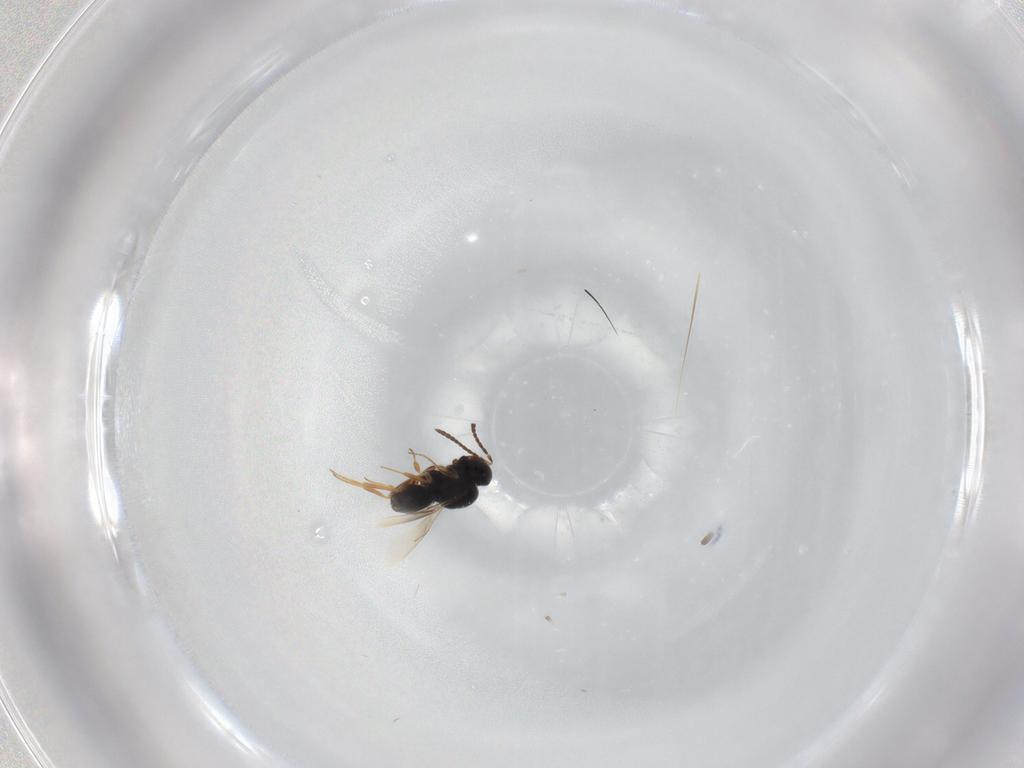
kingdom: Animalia
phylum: Arthropoda
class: Insecta
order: Hymenoptera
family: Scelionidae
